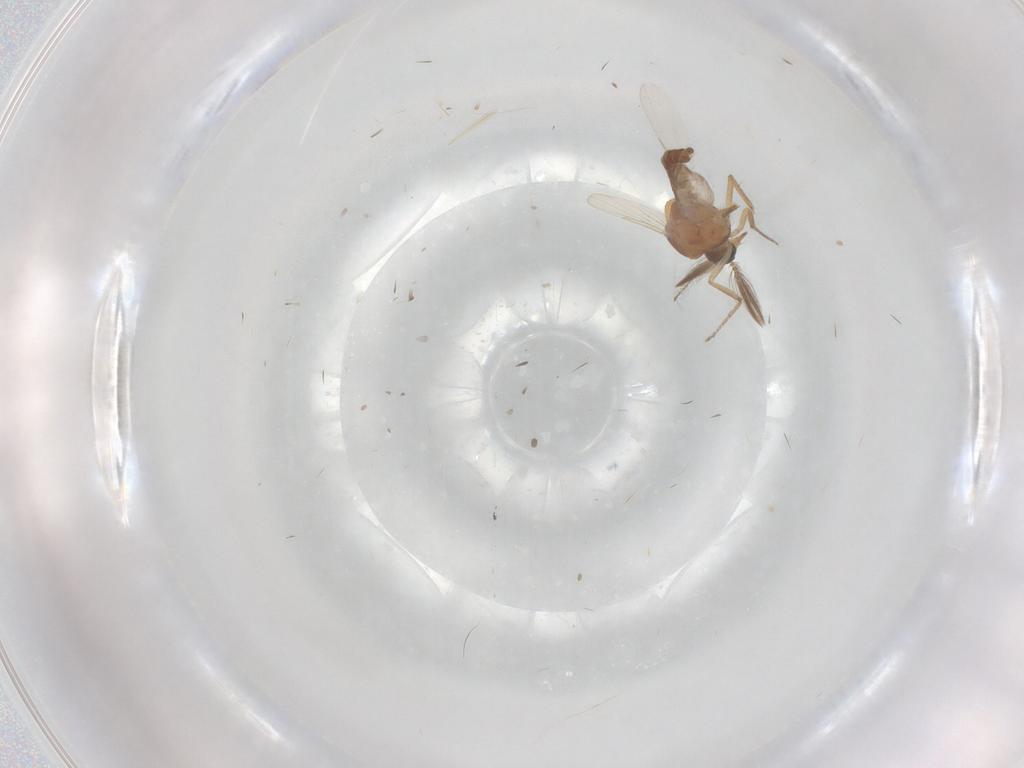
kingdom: Animalia
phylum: Arthropoda
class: Insecta
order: Diptera
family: Ceratopogonidae
